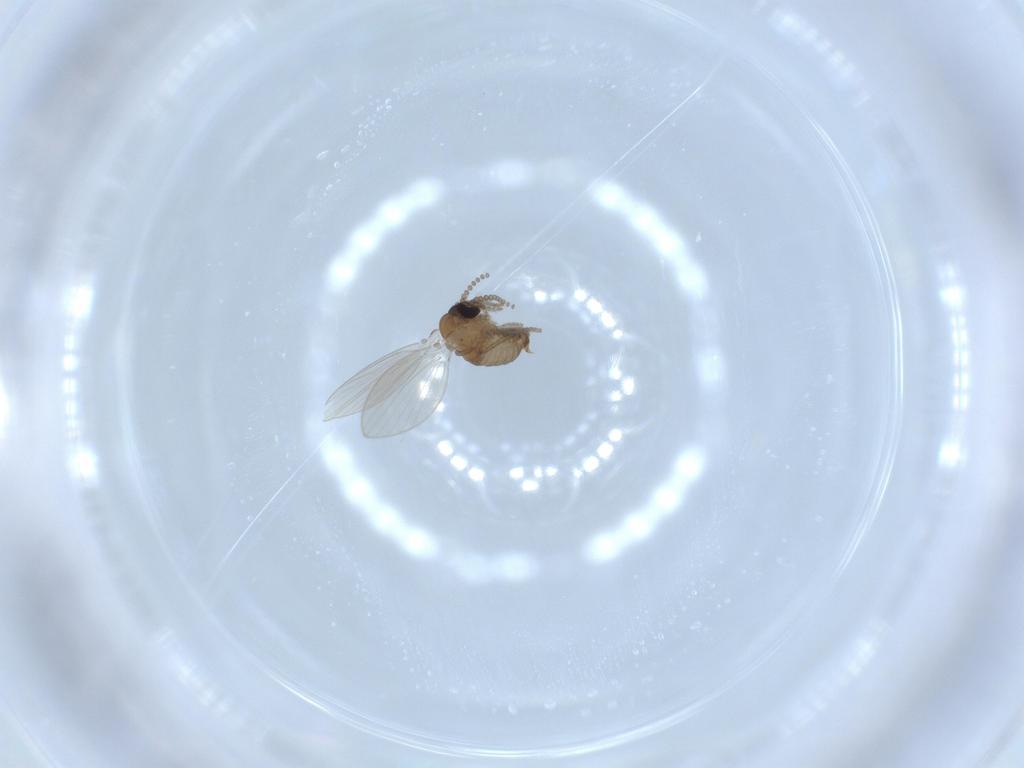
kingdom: Animalia
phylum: Arthropoda
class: Insecta
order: Diptera
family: Psychodidae
